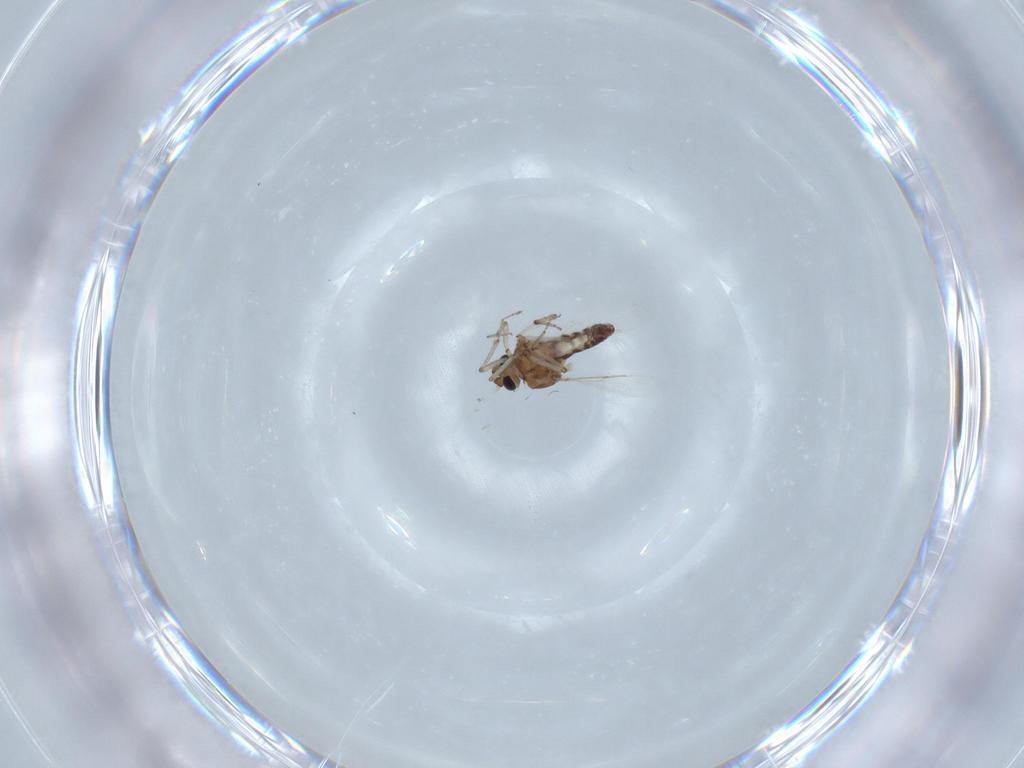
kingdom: Animalia
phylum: Arthropoda
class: Insecta
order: Diptera
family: Ceratopogonidae
